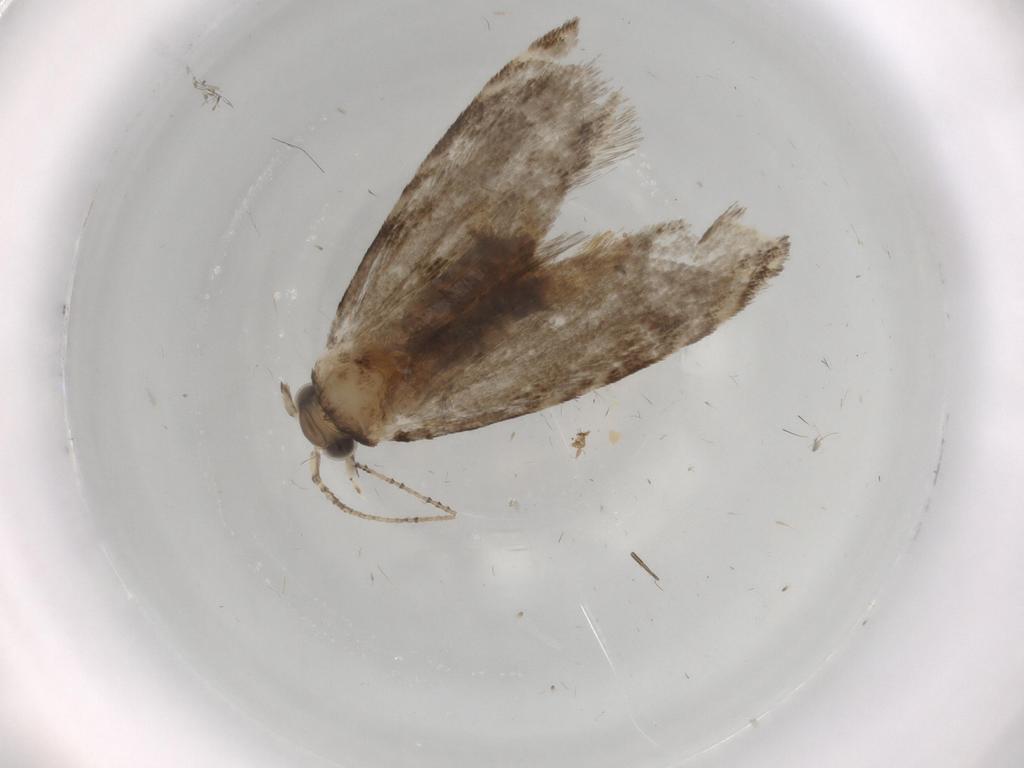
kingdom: Animalia
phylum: Arthropoda
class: Insecta
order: Lepidoptera
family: Tineidae
